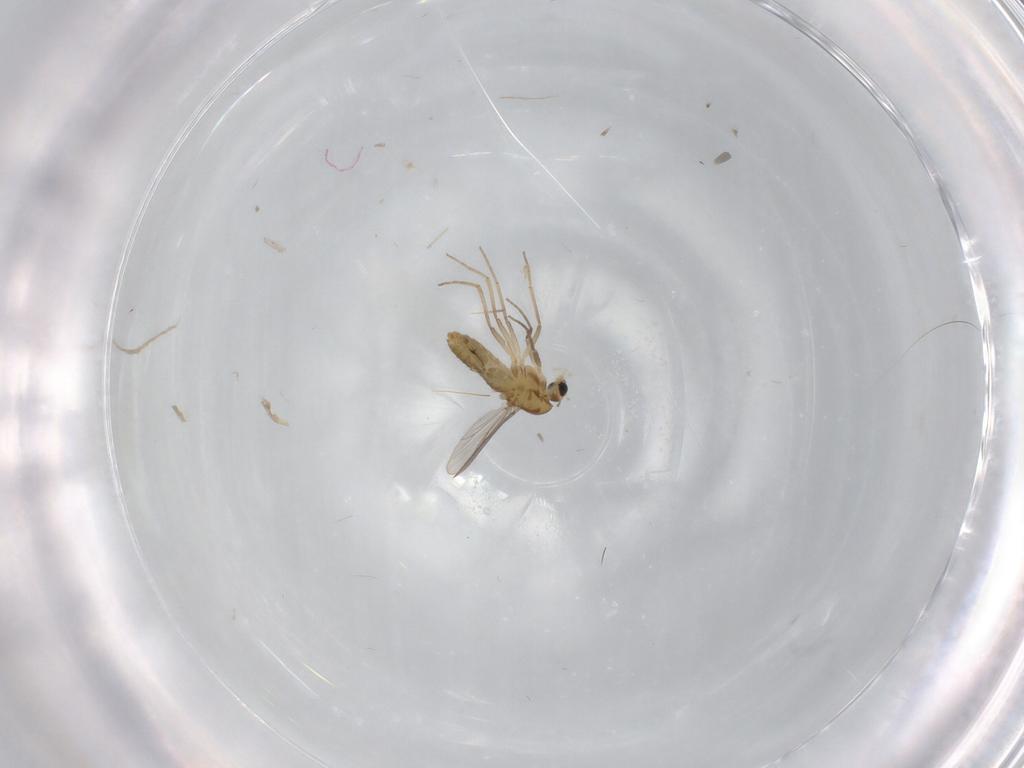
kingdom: Animalia
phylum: Arthropoda
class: Insecta
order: Diptera
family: Chironomidae
